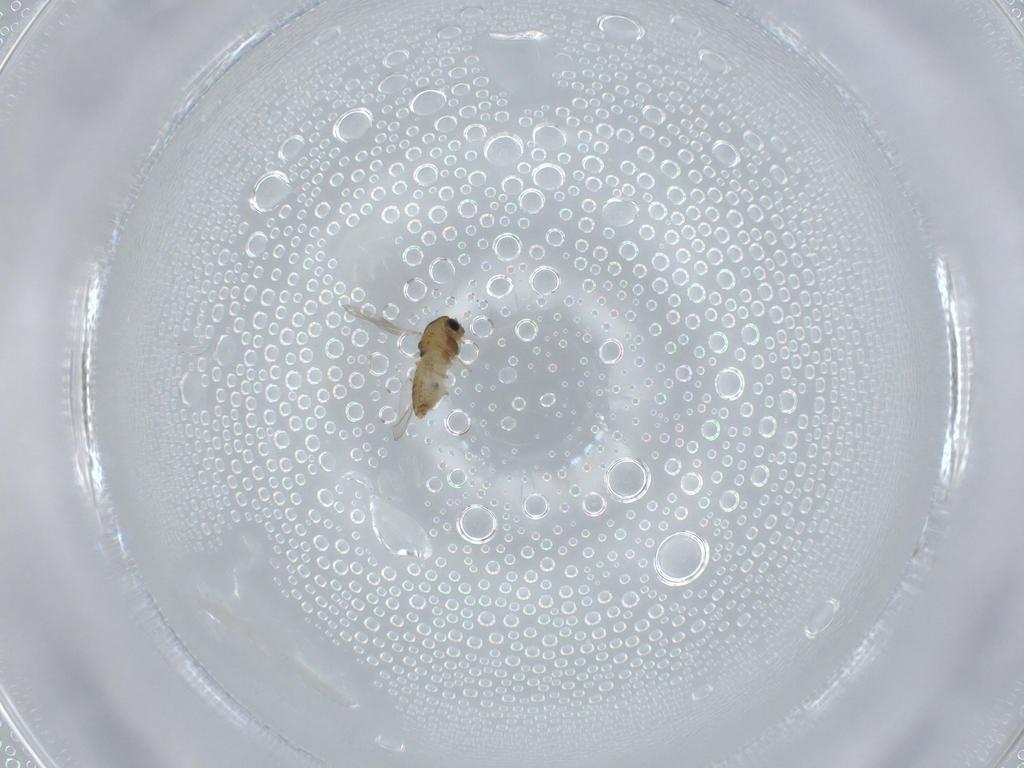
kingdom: Animalia
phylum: Arthropoda
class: Insecta
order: Diptera
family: Chironomidae
